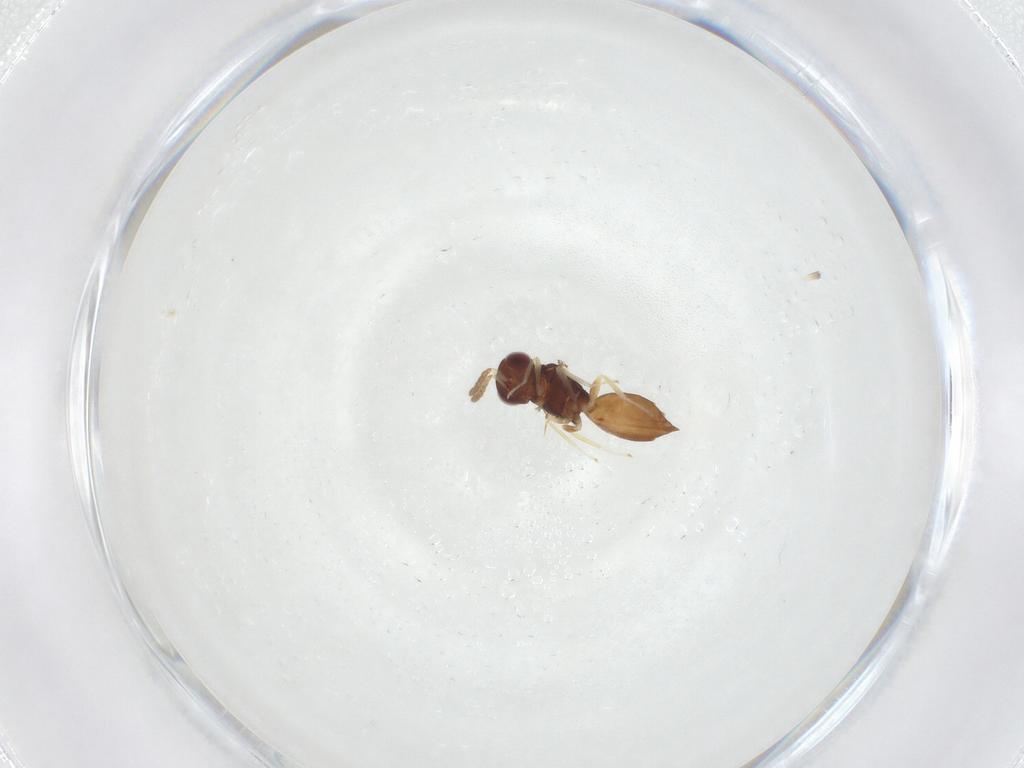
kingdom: Animalia
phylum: Arthropoda
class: Insecta
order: Hymenoptera
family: Eulophidae
